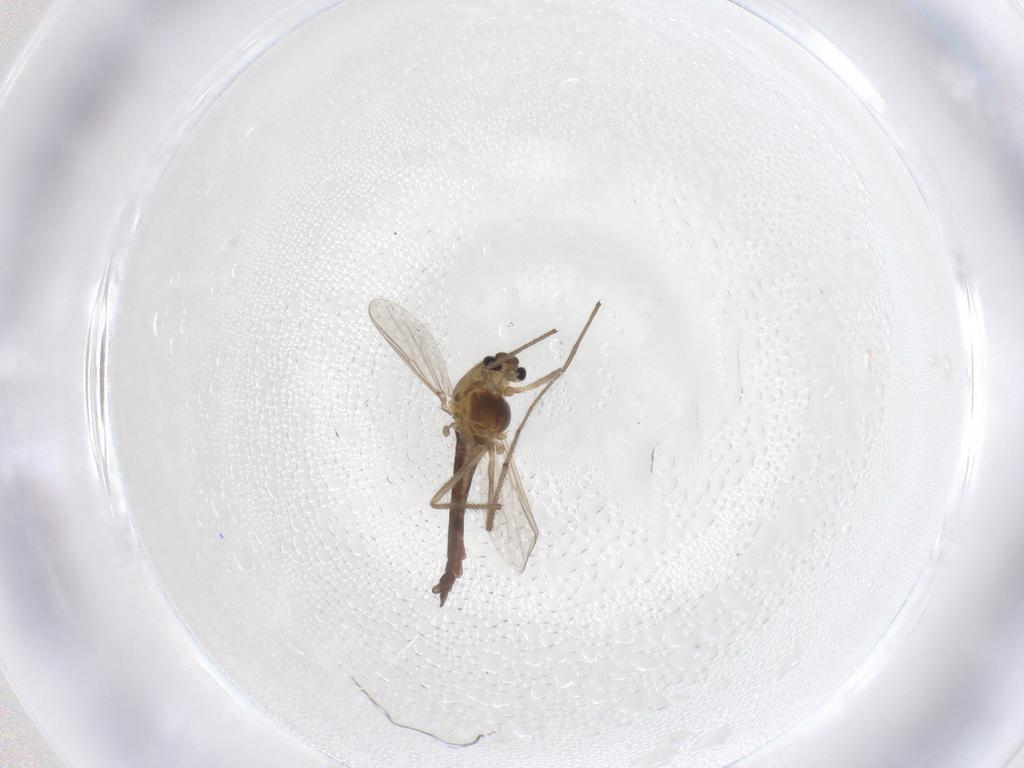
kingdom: Animalia
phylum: Arthropoda
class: Insecta
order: Diptera
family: Chironomidae
